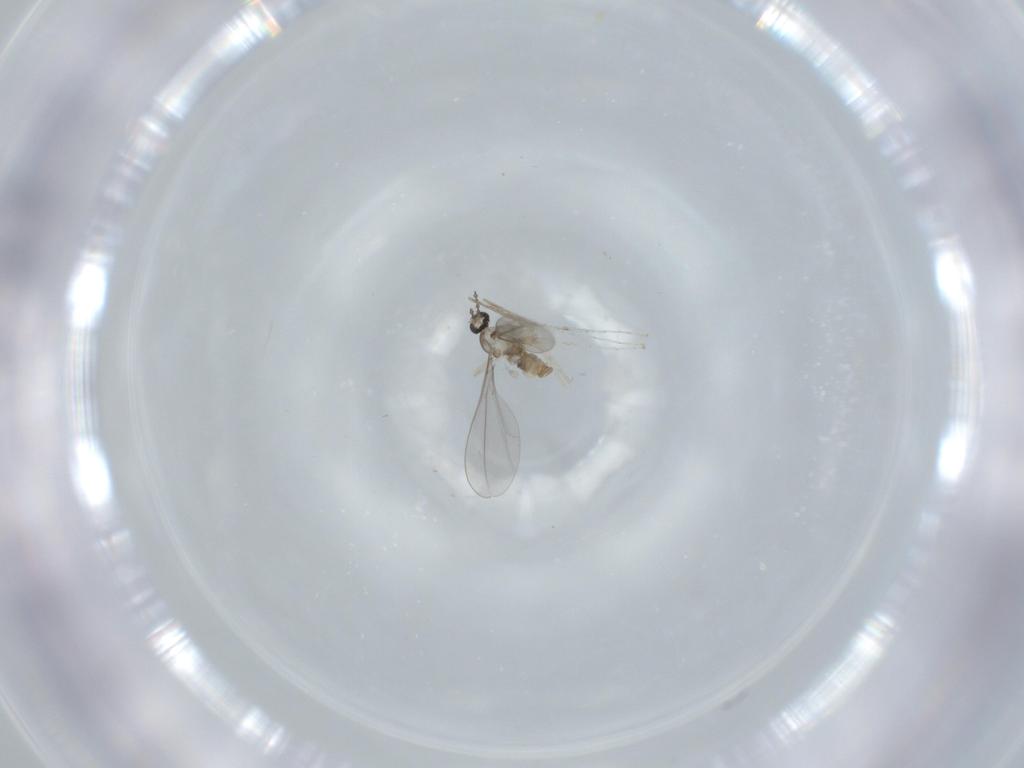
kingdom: Animalia
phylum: Arthropoda
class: Insecta
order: Diptera
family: Cecidomyiidae
